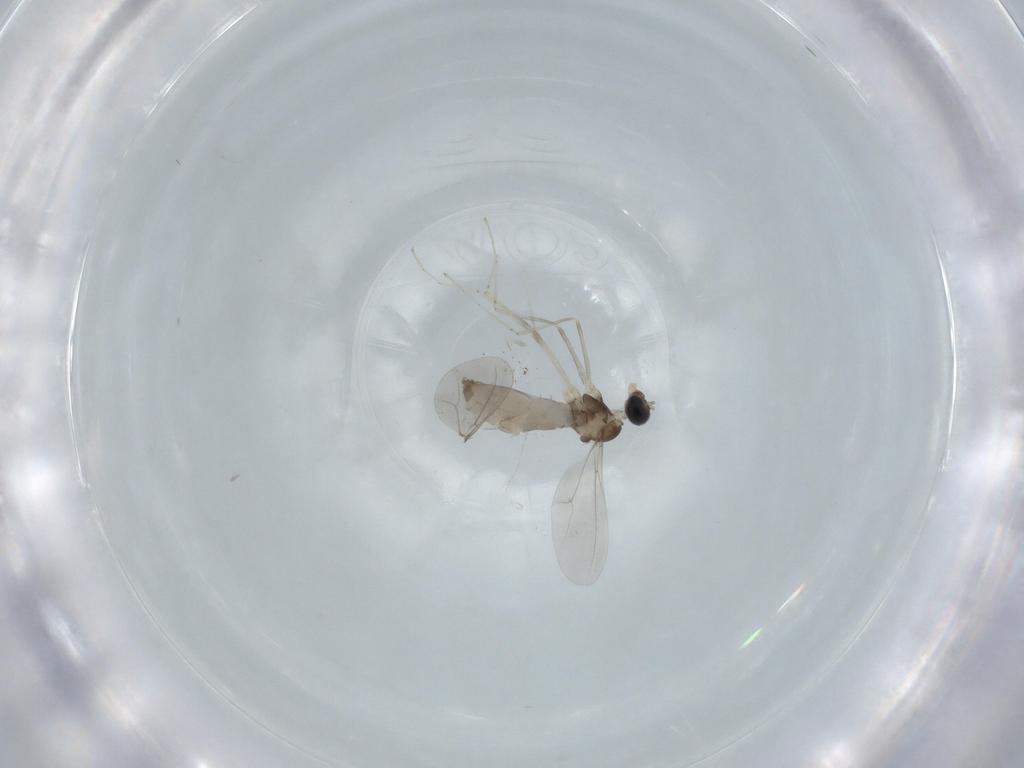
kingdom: Animalia
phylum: Arthropoda
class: Insecta
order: Diptera
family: Cecidomyiidae
